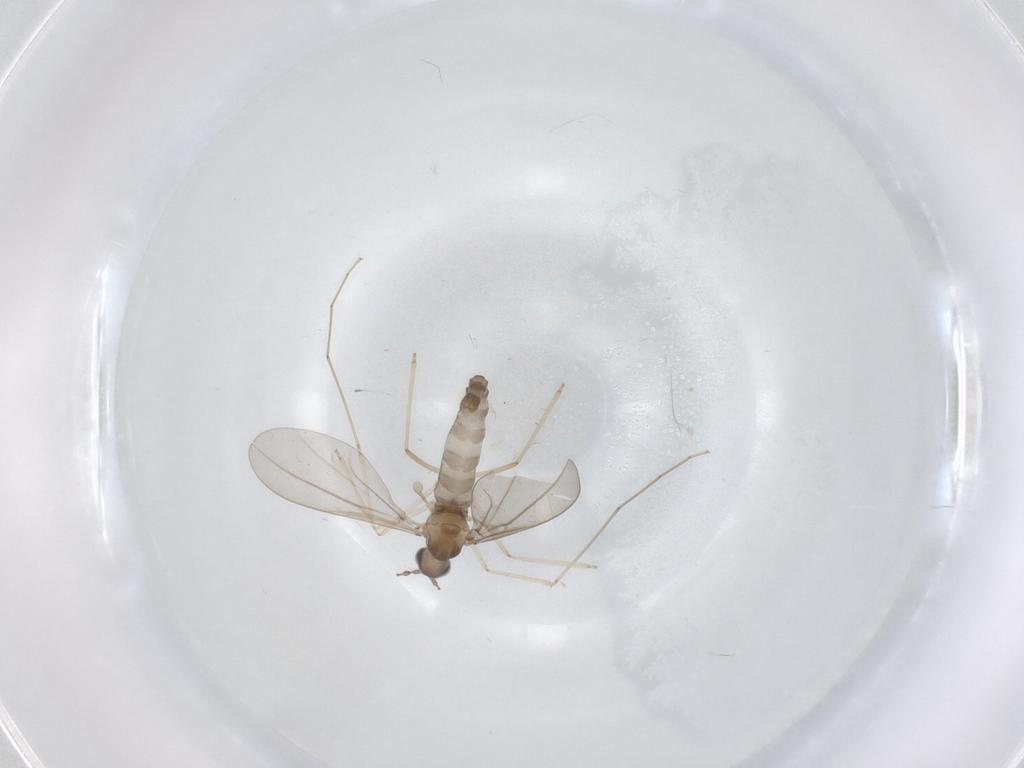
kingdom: Animalia
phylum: Arthropoda
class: Insecta
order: Diptera
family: Cecidomyiidae
